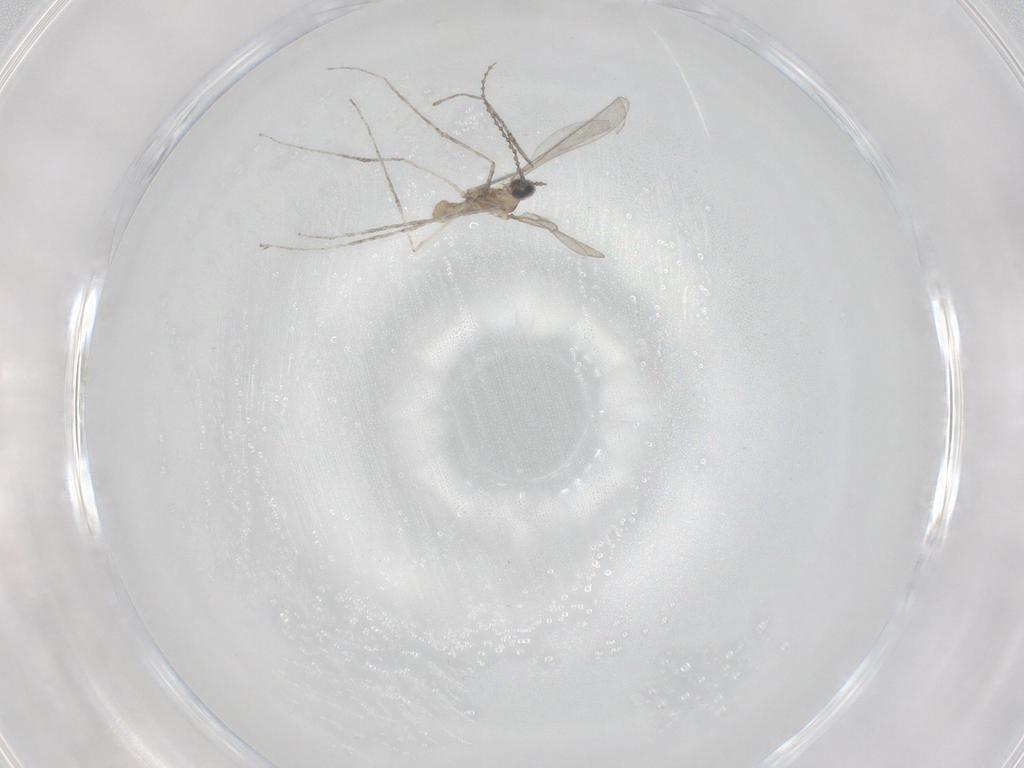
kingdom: Animalia
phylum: Arthropoda
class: Insecta
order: Diptera
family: Cecidomyiidae
